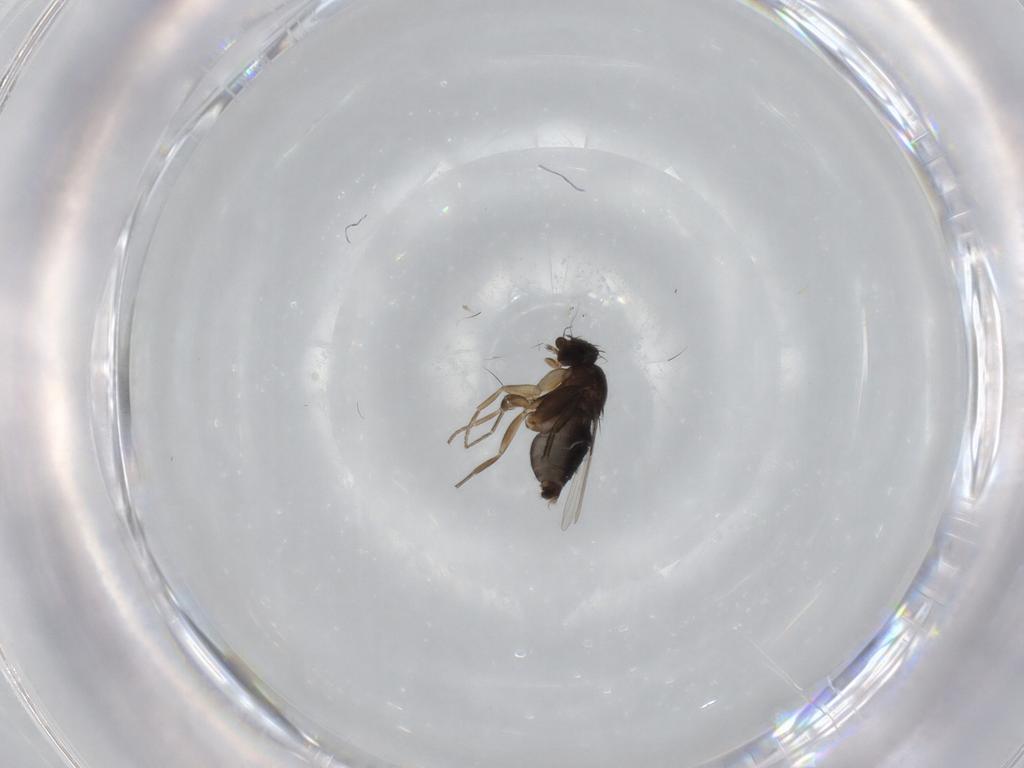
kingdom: Animalia
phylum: Arthropoda
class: Insecta
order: Diptera
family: Phoridae
